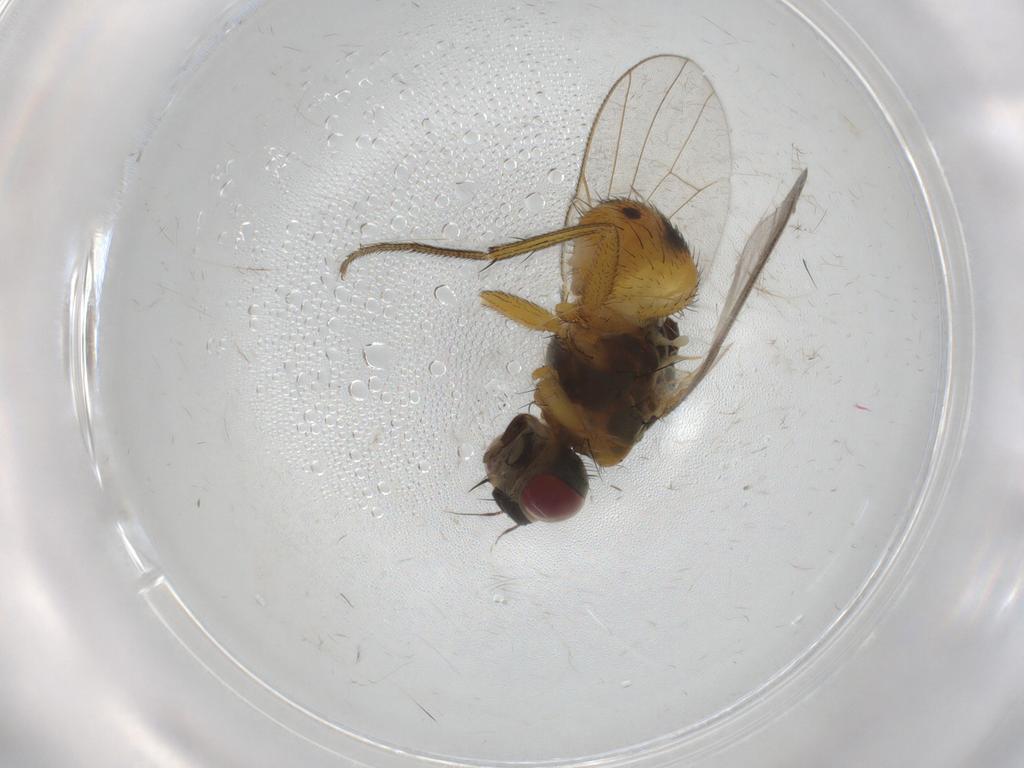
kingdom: Animalia
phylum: Arthropoda
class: Insecta
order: Diptera
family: Muscidae
